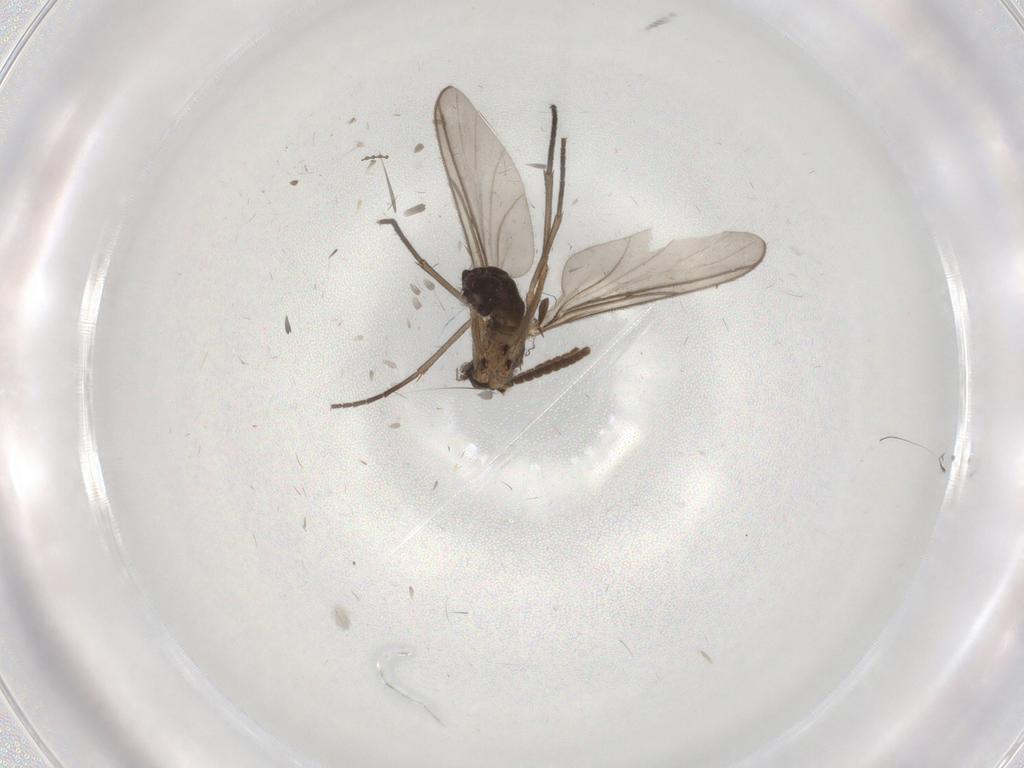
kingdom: Animalia
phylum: Arthropoda
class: Insecta
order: Diptera
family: Sciaridae
